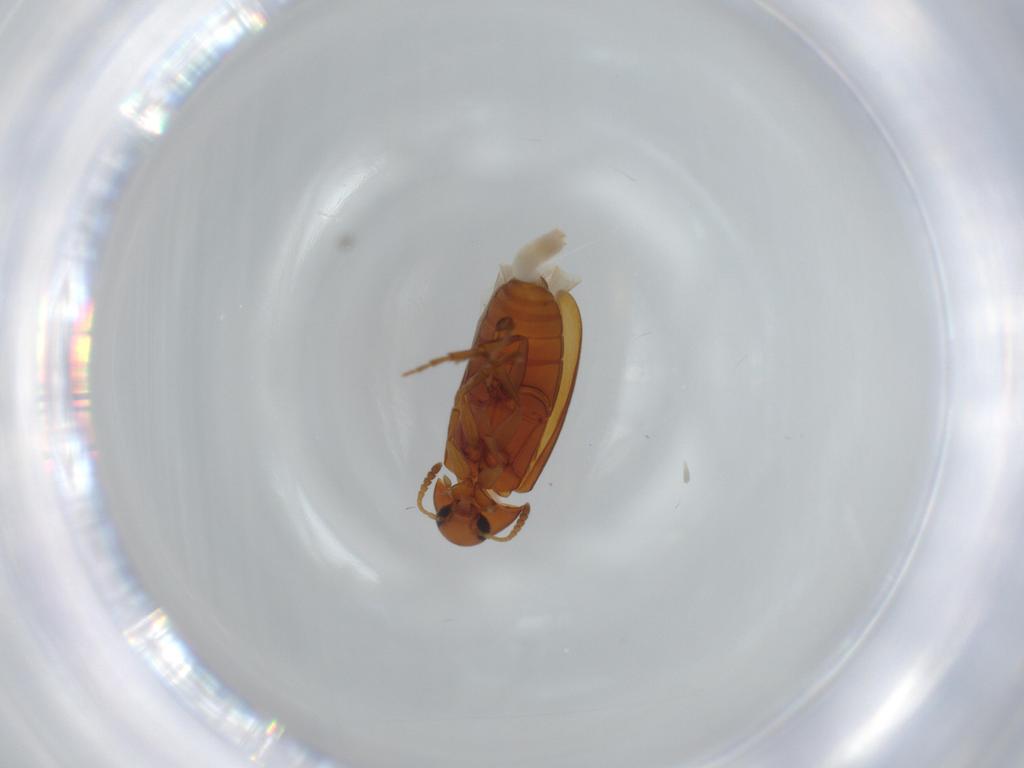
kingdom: Animalia
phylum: Arthropoda
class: Insecta
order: Coleoptera
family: Scraptiidae
